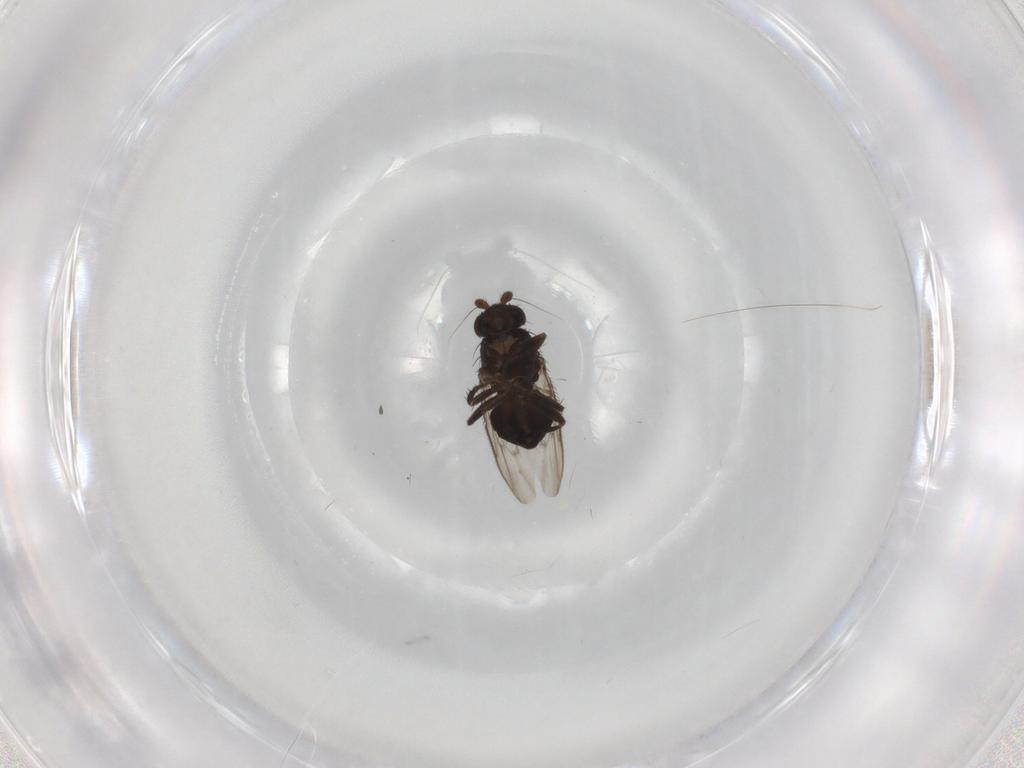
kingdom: Animalia
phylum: Arthropoda
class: Insecta
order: Diptera
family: Sphaeroceridae
